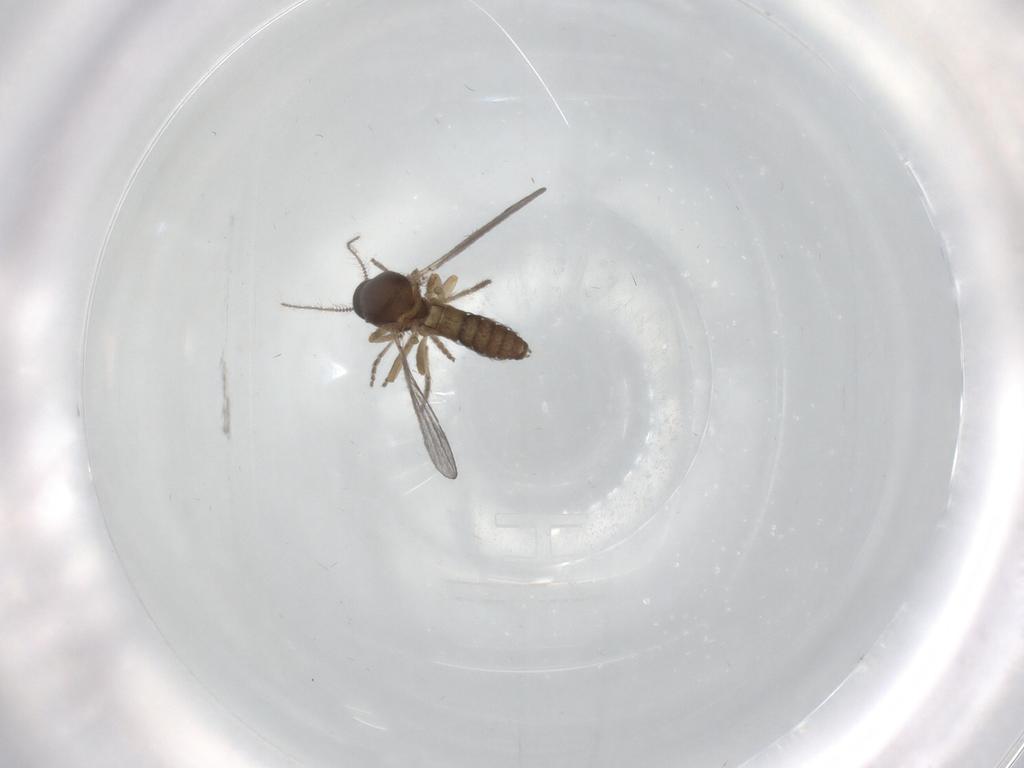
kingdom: Animalia
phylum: Arthropoda
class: Insecta
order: Diptera
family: Ceratopogonidae
